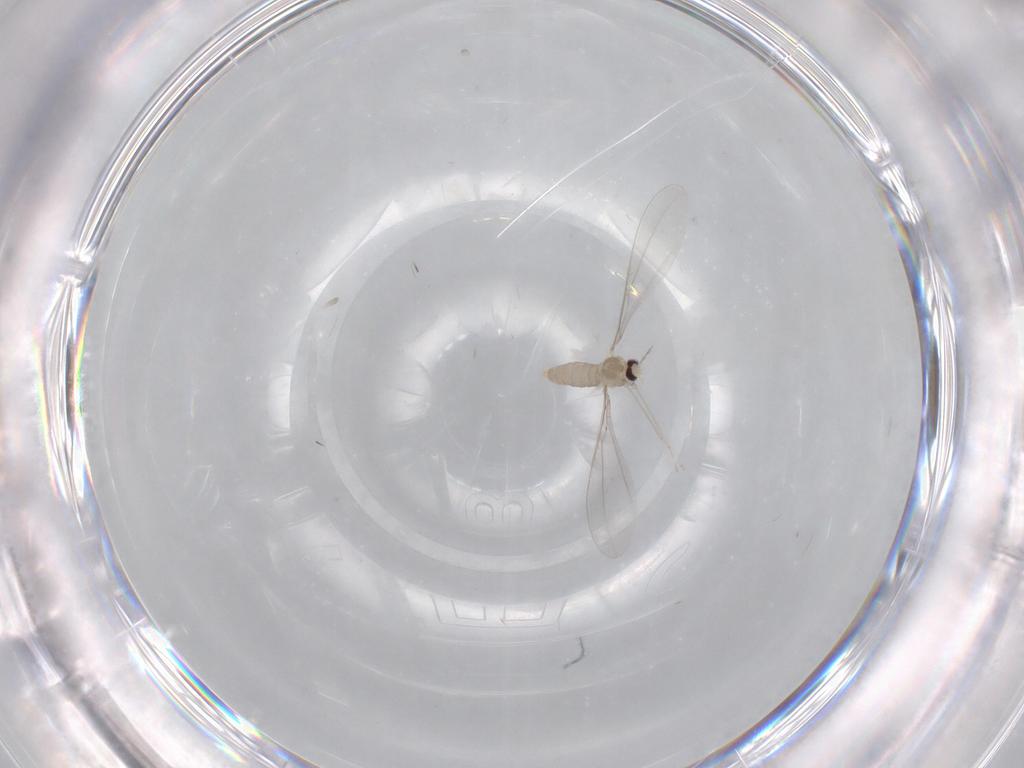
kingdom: Animalia
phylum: Arthropoda
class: Insecta
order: Diptera
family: Cecidomyiidae
